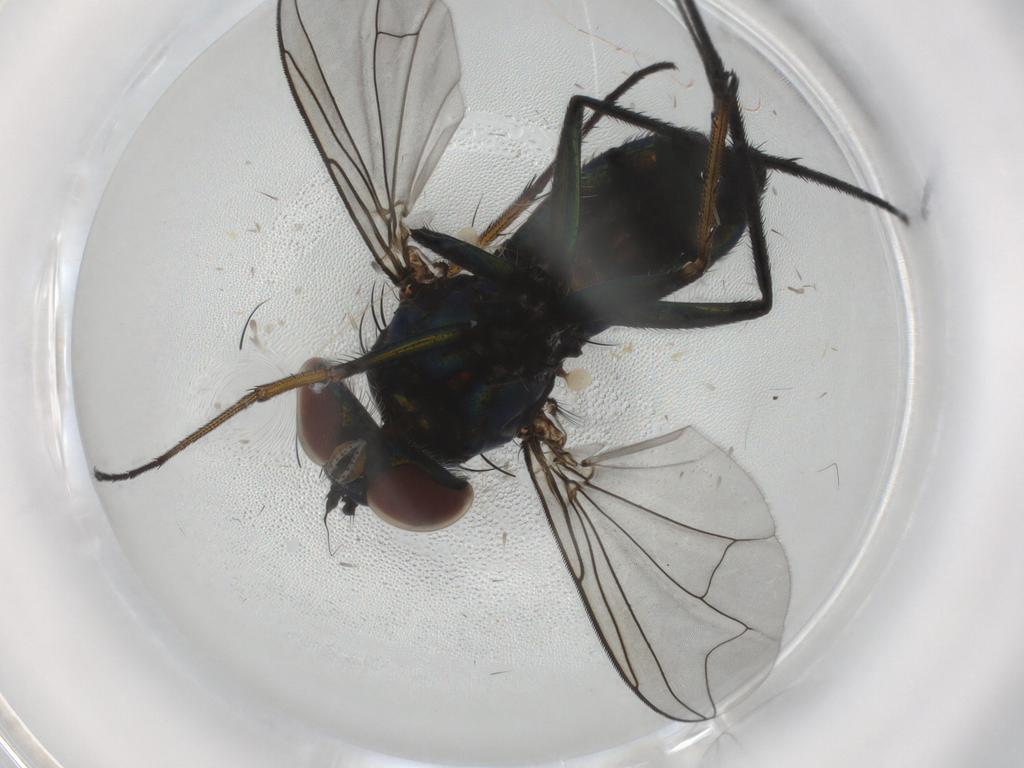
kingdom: Animalia
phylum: Arthropoda
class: Insecta
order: Diptera
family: Dolichopodidae
